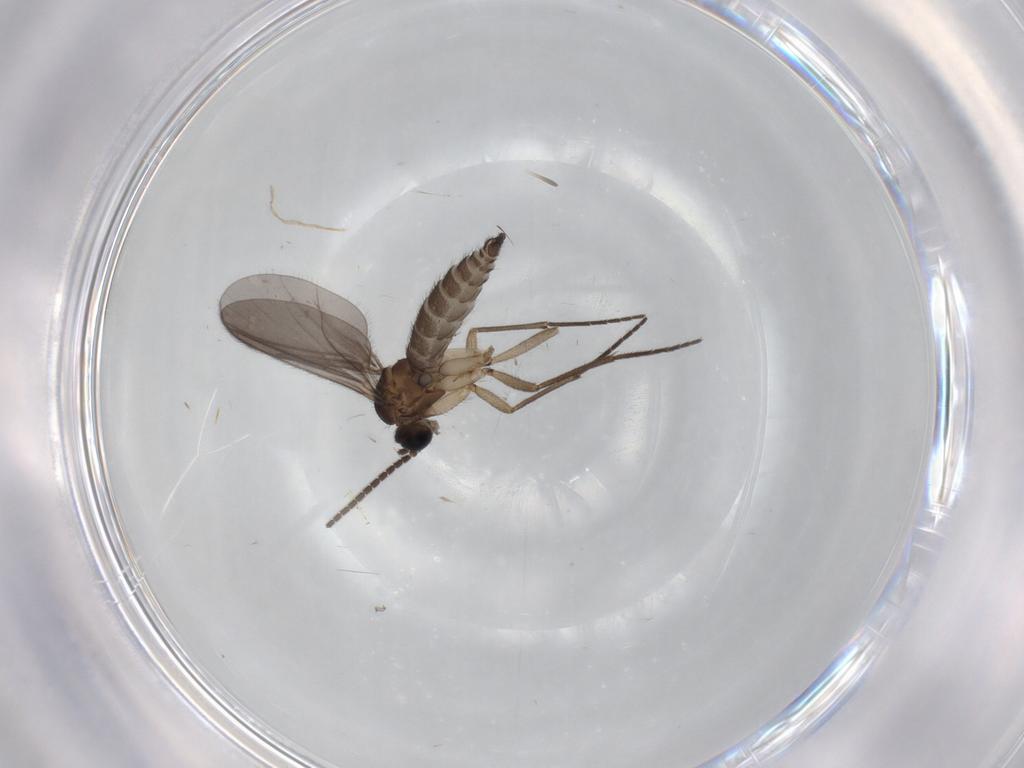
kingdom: Animalia
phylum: Arthropoda
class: Insecta
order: Diptera
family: Sciaridae
